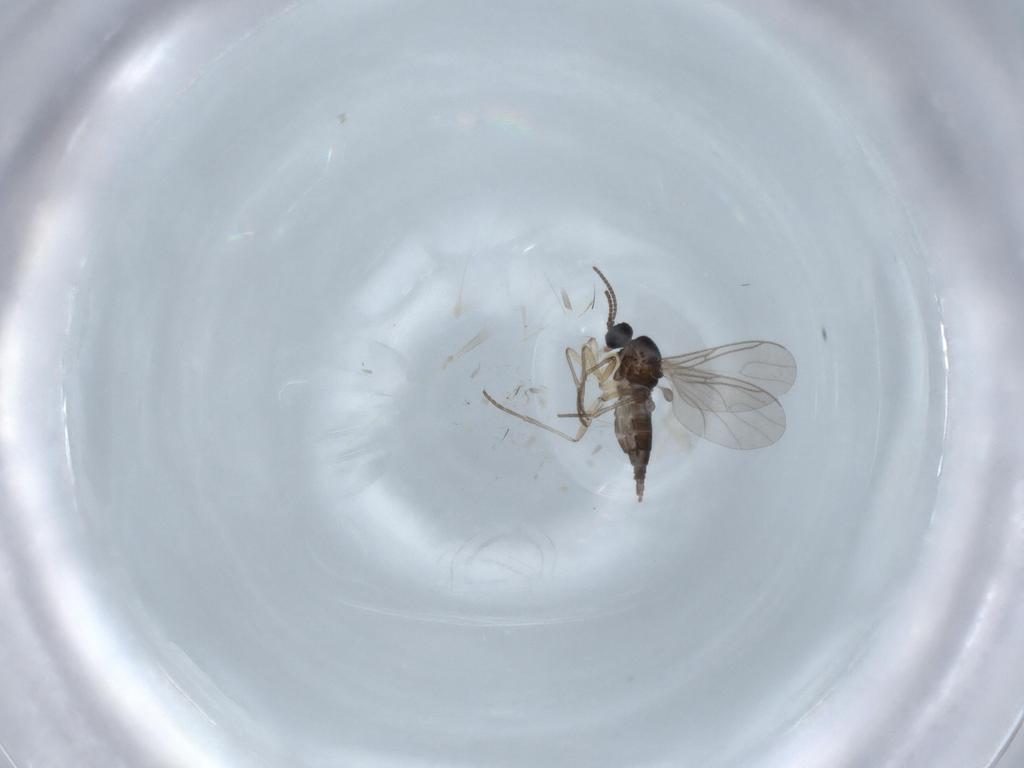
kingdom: Animalia
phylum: Arthropoda
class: Insecta
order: Diptera
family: Sciaridae
